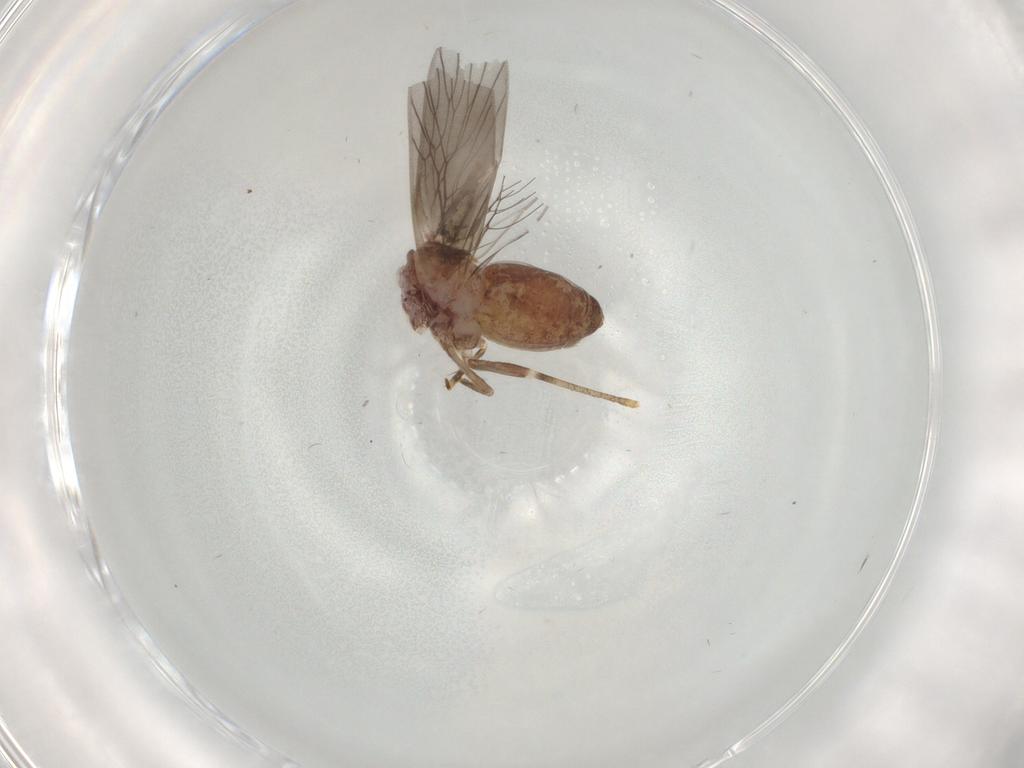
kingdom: Animalia
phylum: Arthropoda
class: Insecta
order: Psocodea
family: Lepidopsocidae
